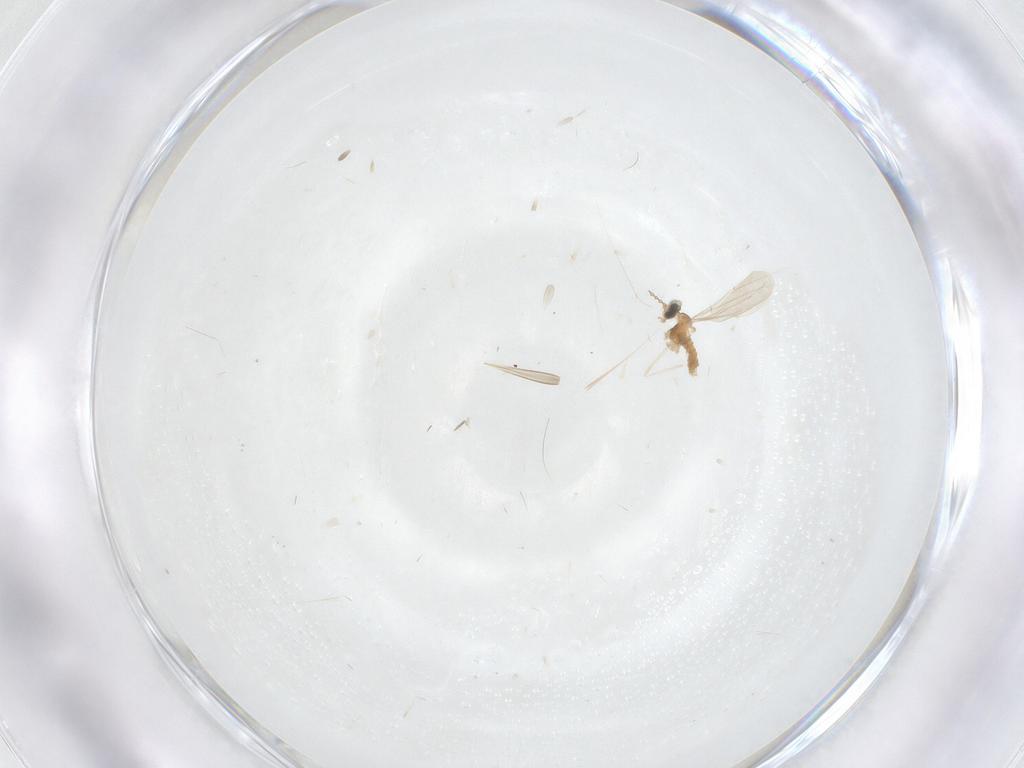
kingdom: Animalia
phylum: Arthropoda
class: Insecta
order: Diptera
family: Cecidomyiidae
